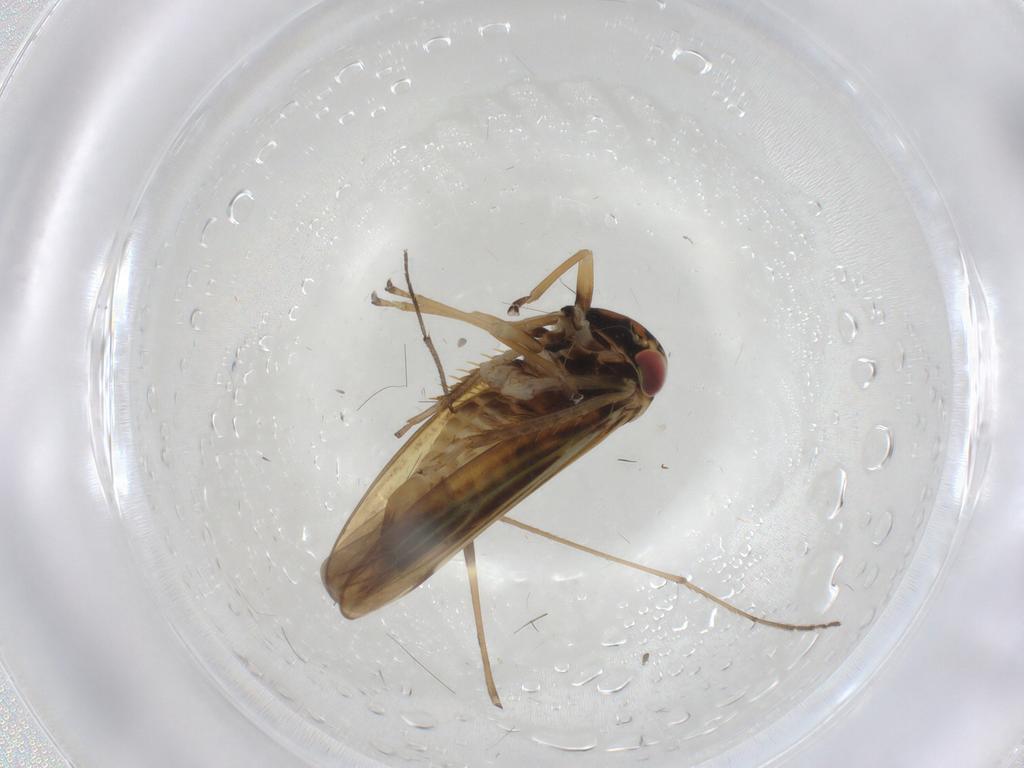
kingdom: Animalia
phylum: Arthropoda
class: Insecta
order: Hemiptera
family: Cicadellidae
